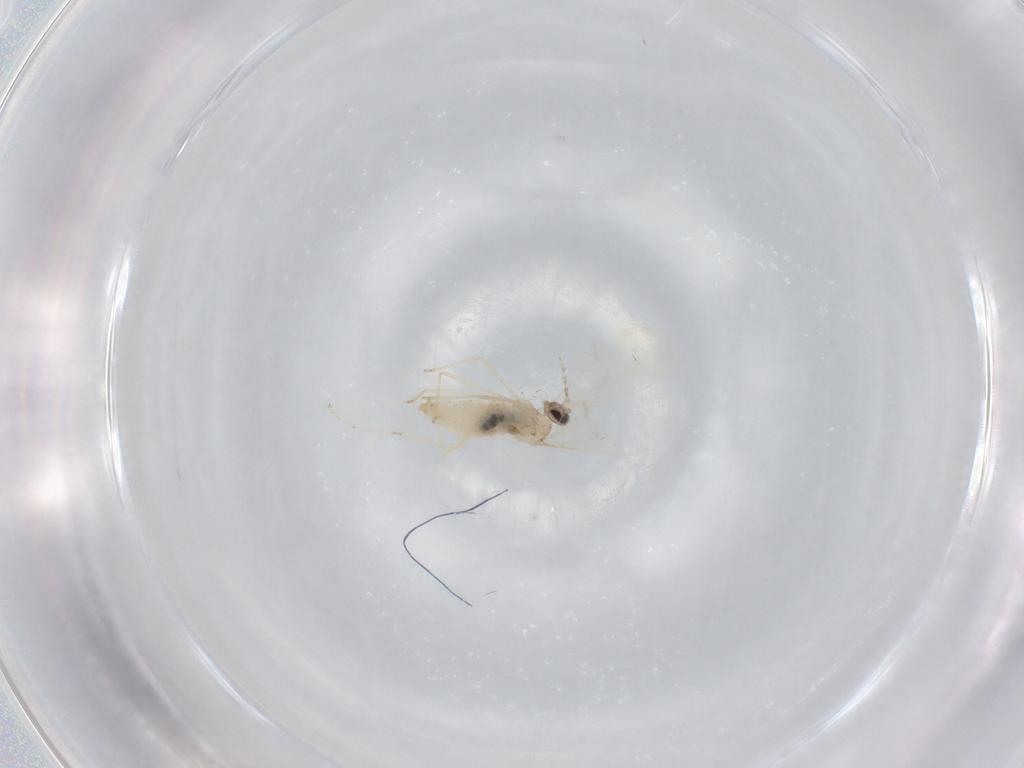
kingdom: Animalia
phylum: Arthropoda
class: Insecta
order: Diptera
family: Cecidomyiidae
